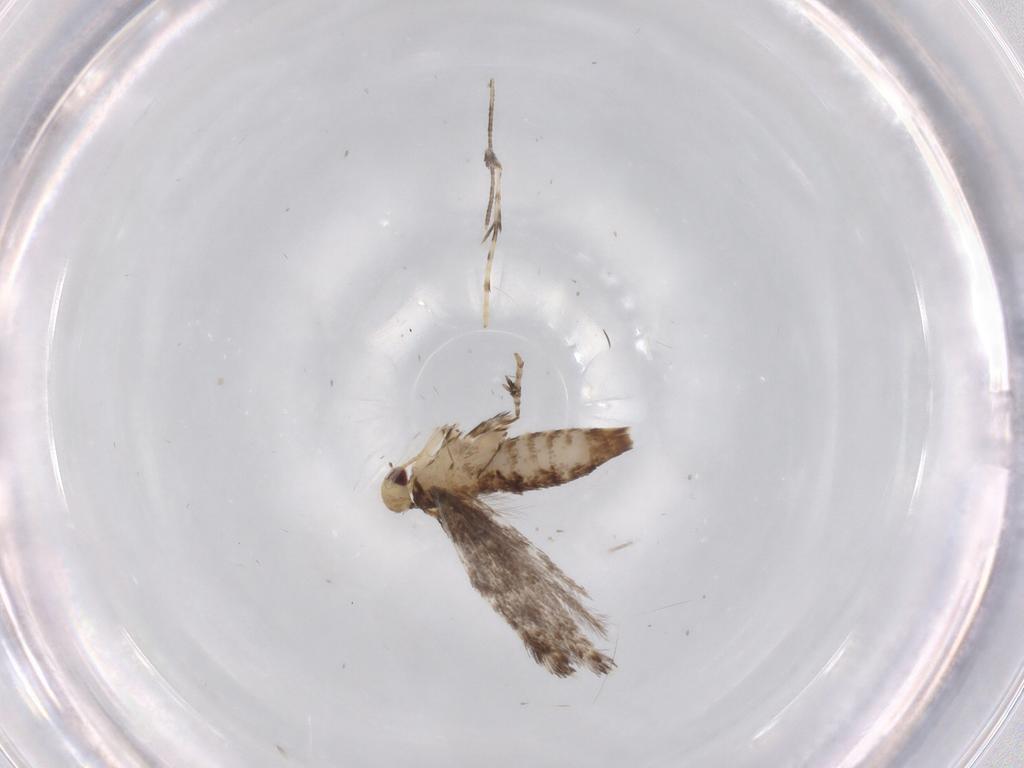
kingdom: Animalia
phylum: Arthropoda
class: Insecta
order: Lepidoptera
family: Gracillariidae
